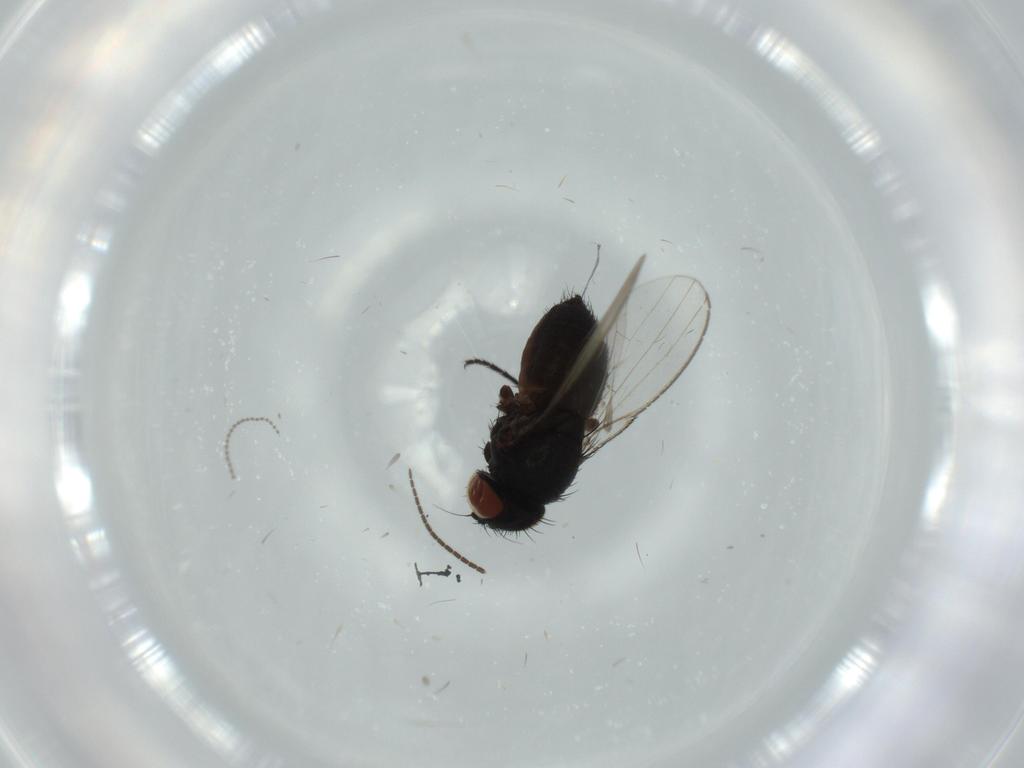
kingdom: Animalia
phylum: Arthropoda
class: Insecta
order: Diptera
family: Milichiidae
